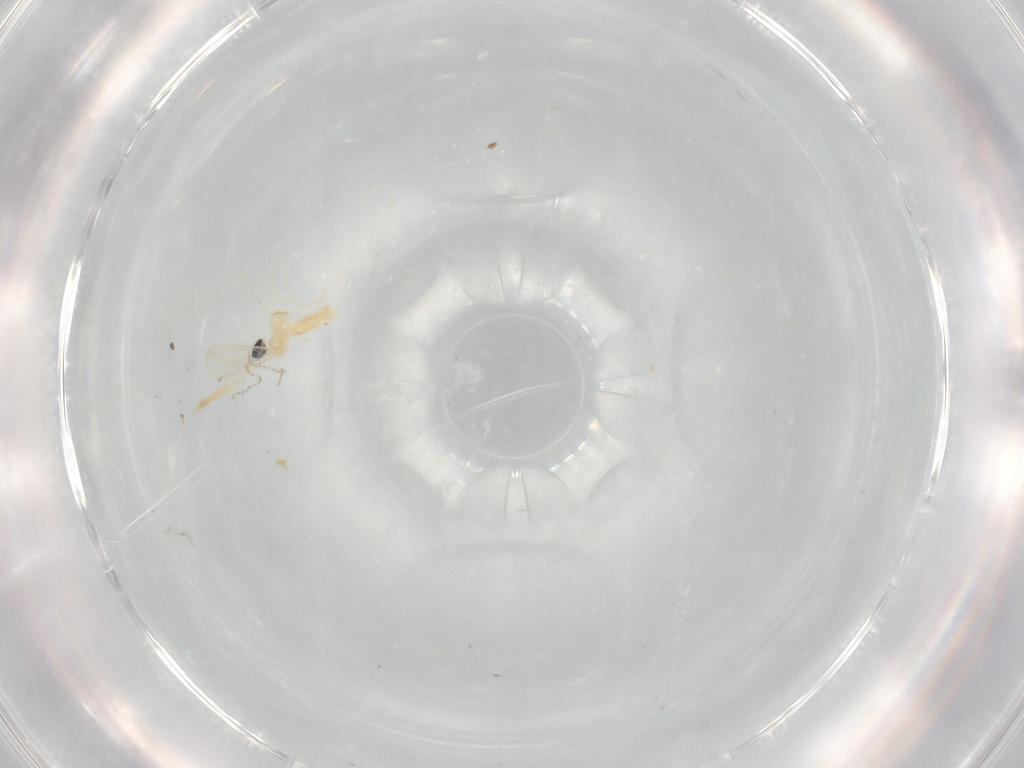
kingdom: Animalia
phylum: Arthropoda
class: Insecta
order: Diptera
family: Cecidomyiidae
